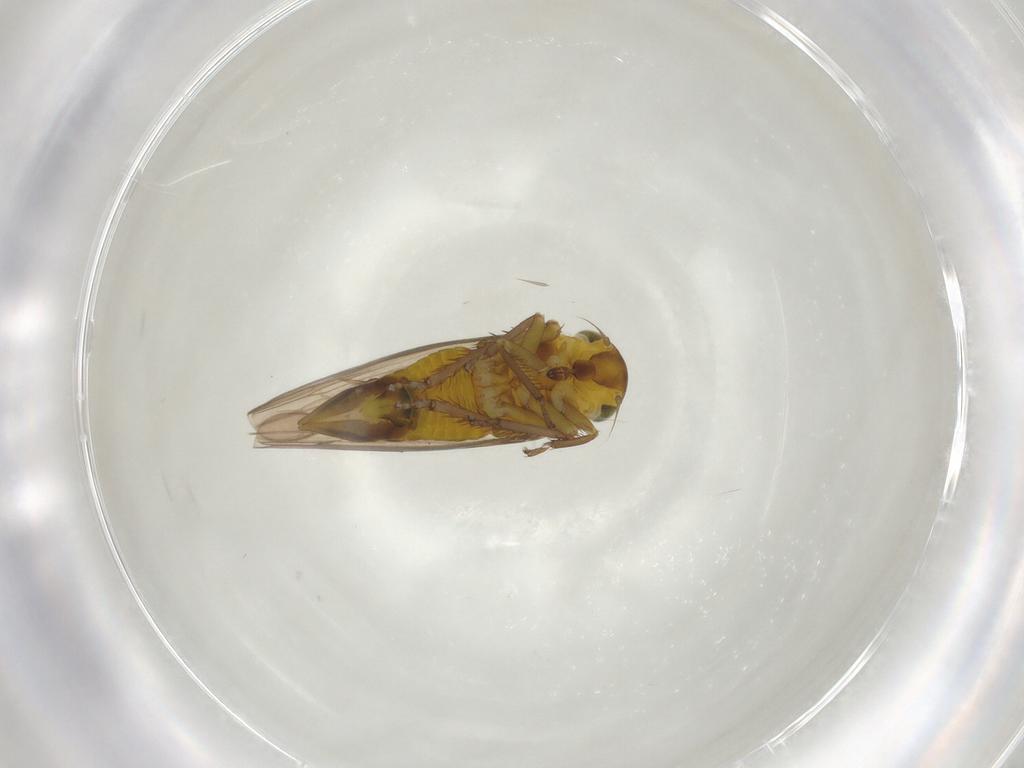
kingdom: Animalia
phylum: Arthropoda
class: Insecta
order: Hemiptera
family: Cicadellidae
